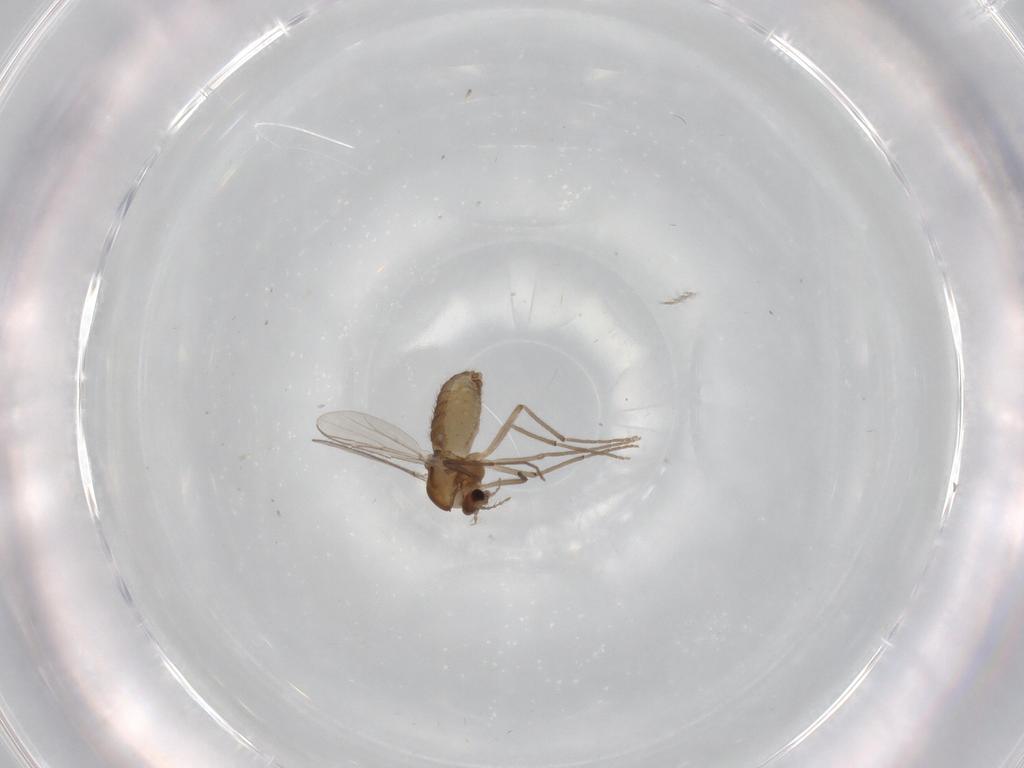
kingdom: Animalia
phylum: Arthropoda
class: Insecta
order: Diptera
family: Chironomidae
